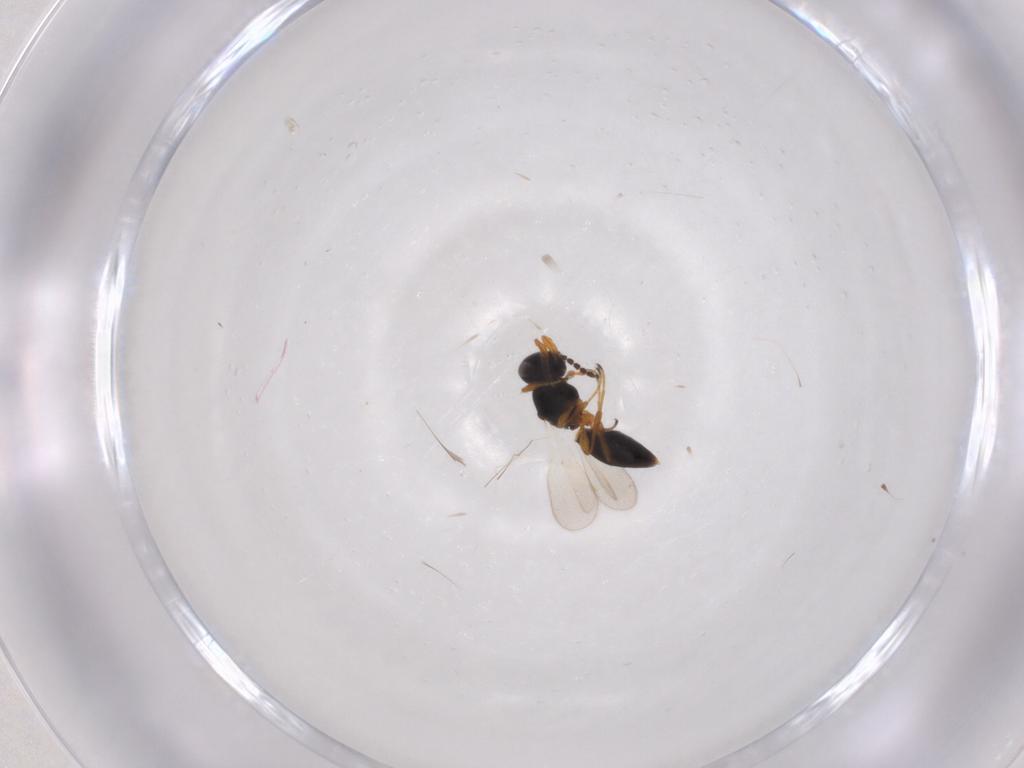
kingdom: Animalia
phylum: Arthropoda
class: Insecta
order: Hymenoptera
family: Platygastridae
